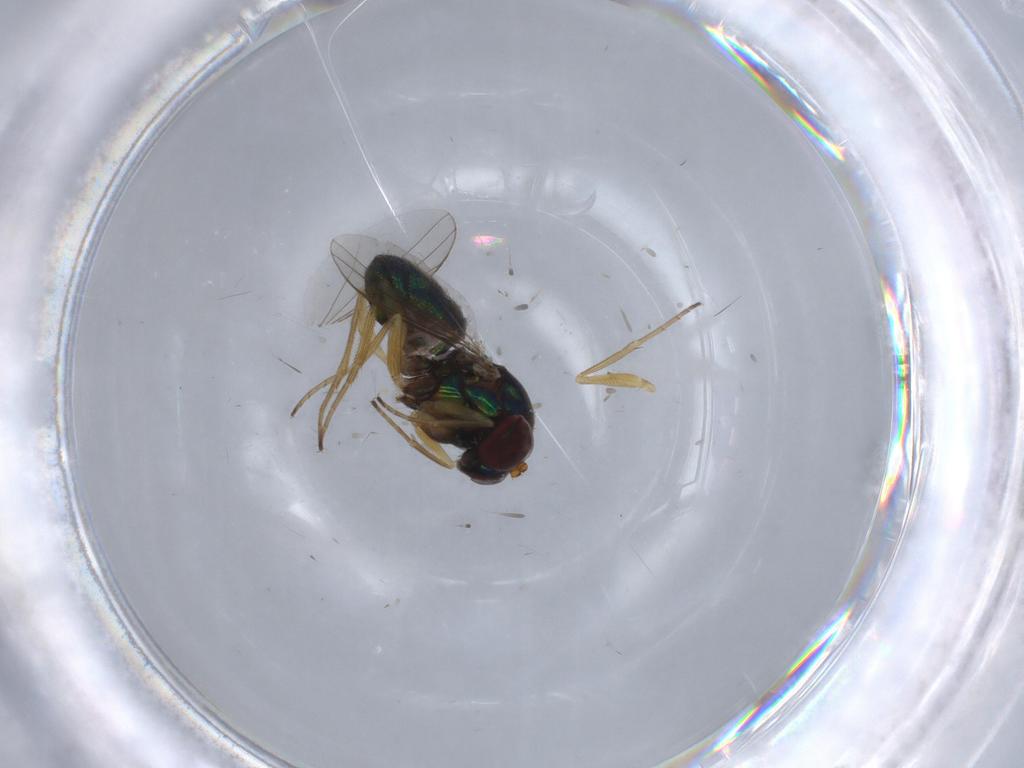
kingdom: Animalia
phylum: Arthropoda
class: Insecta
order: Diptera
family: Dolichopodidae
